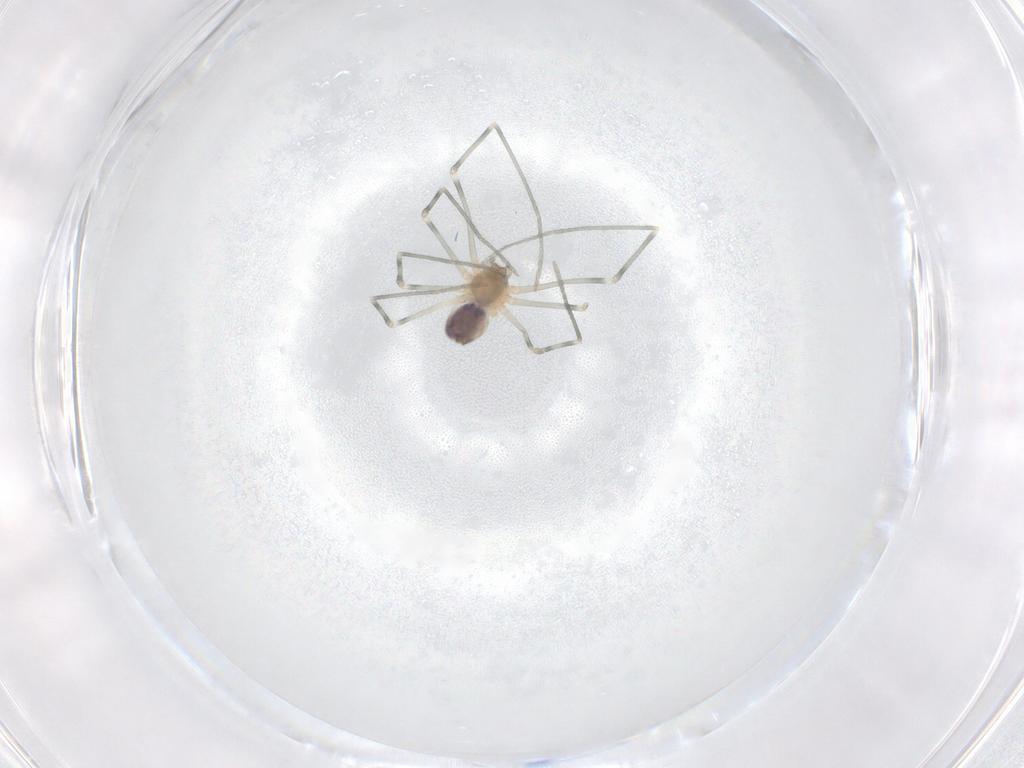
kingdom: Animalia
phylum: Arthropoda
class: Arachnida
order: Araneae
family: Pholcidae
